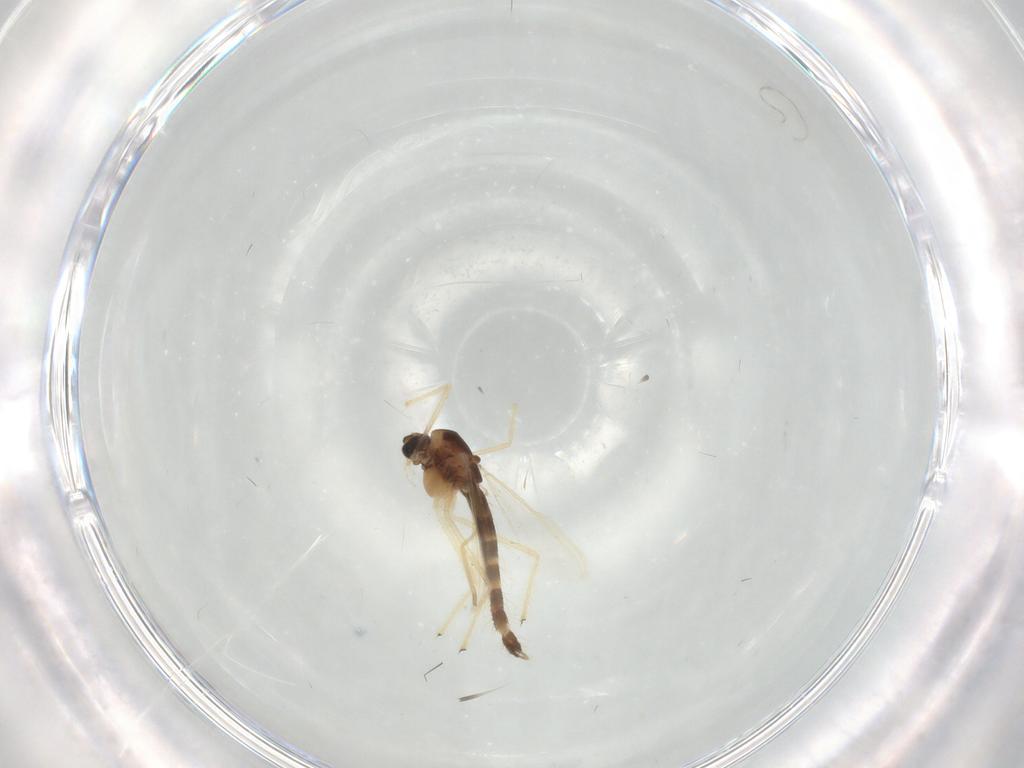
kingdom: Animalia
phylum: Arthropoda
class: Insecta
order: Diptera
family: Chironomidae
